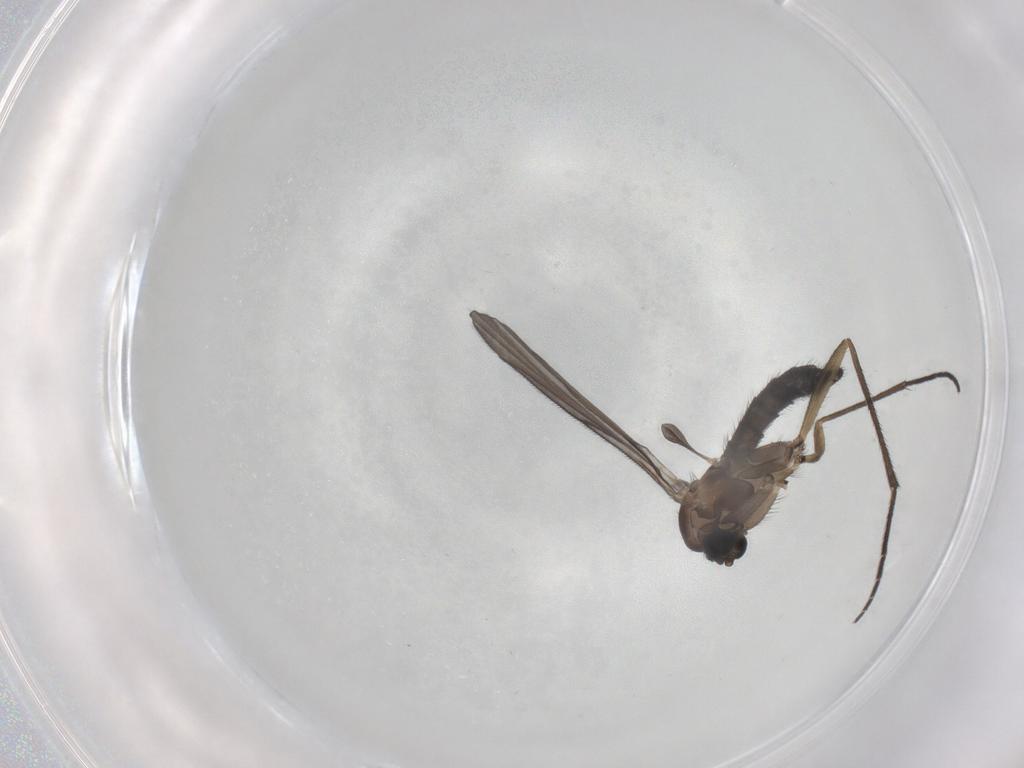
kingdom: Animalia
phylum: Arthropoda
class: Insecta
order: Diptera
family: Sciaridae
